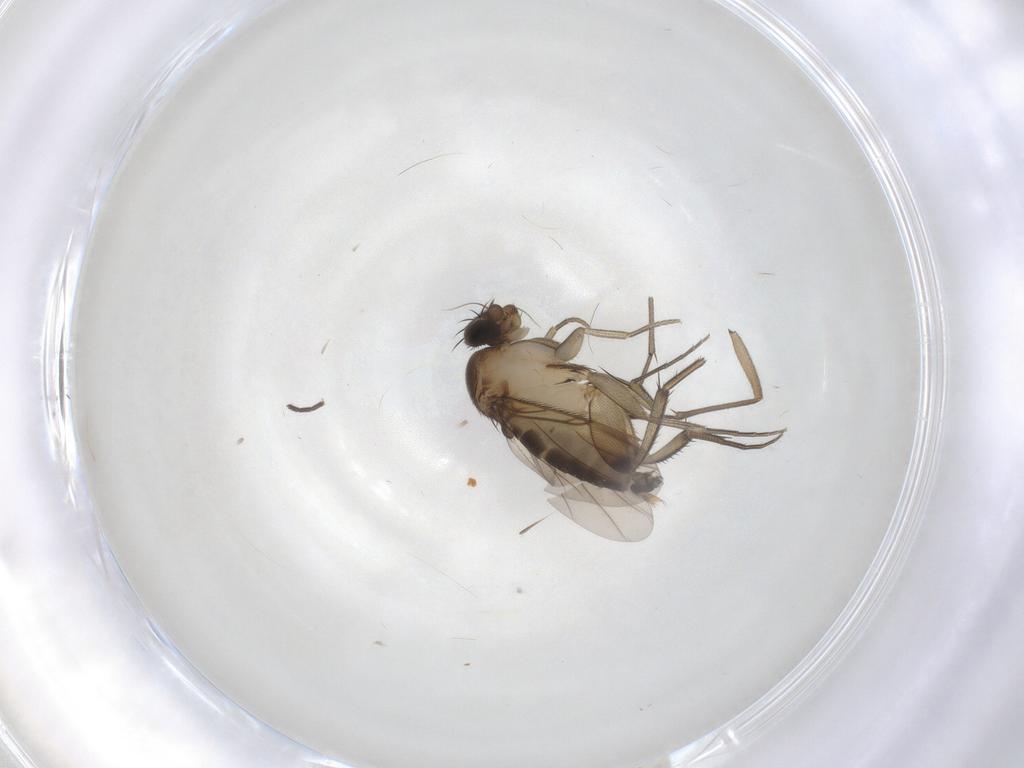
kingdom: Animalia
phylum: Arthropoda
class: Insecta
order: Diptera
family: Phoridae
